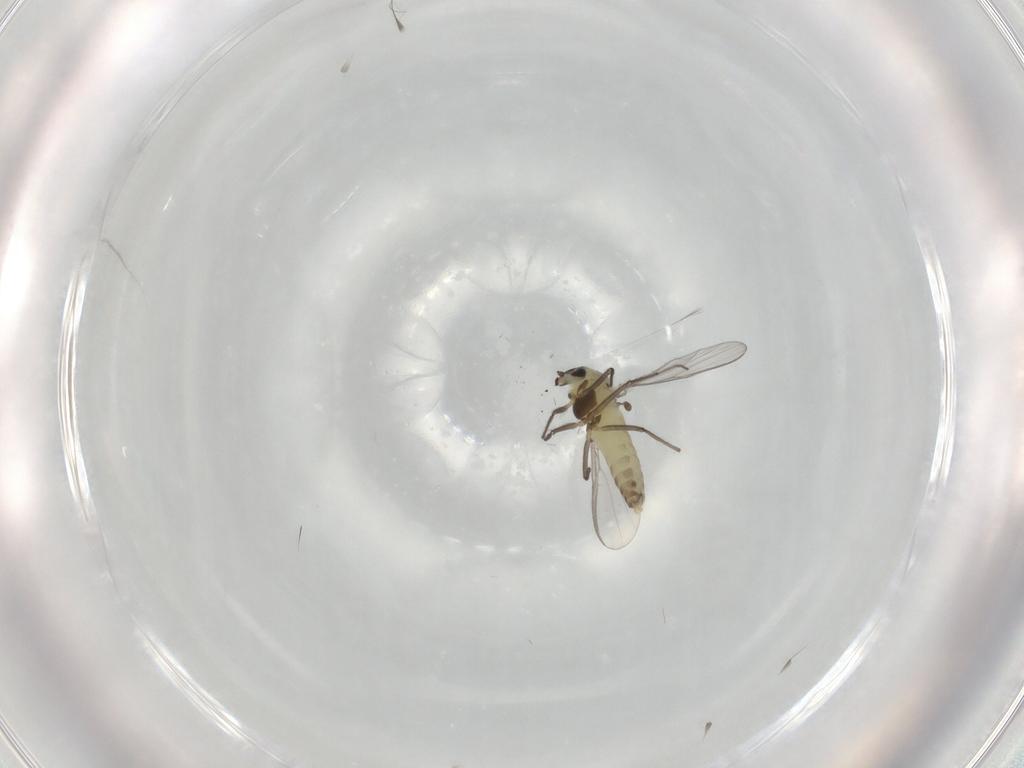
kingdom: Animalia
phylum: Arthropoda
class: Insecta
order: Diptera
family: Chironomidae
